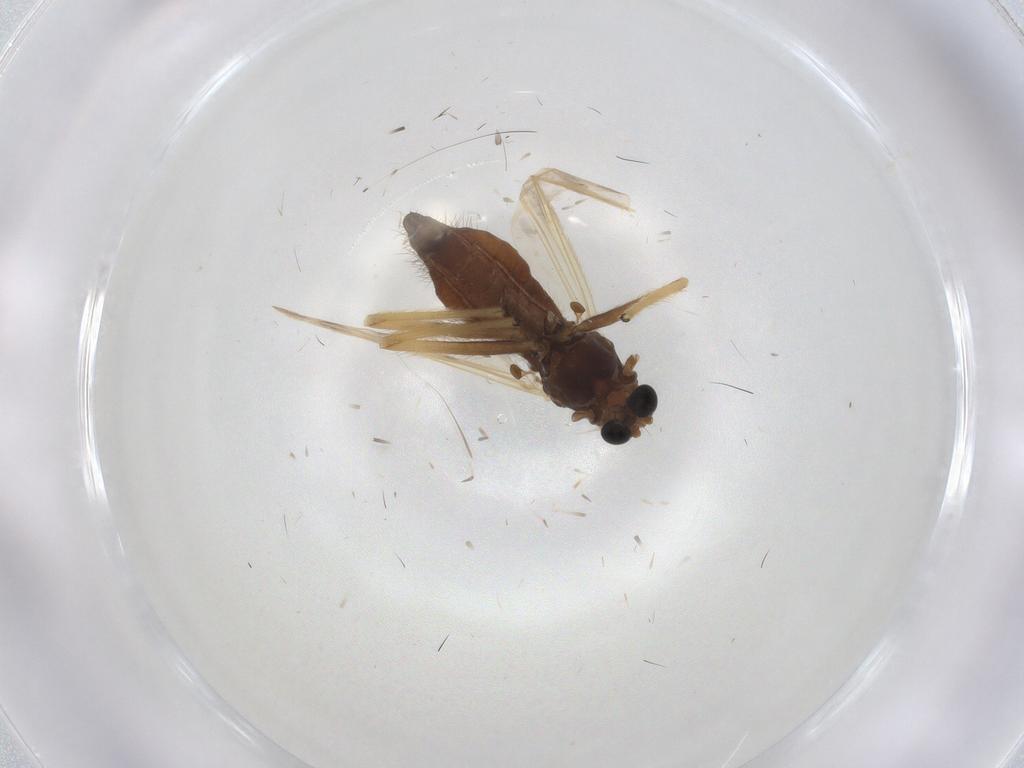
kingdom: Animalia
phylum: Arthropoda
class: Insecta
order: Diptera
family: Chironomidae
